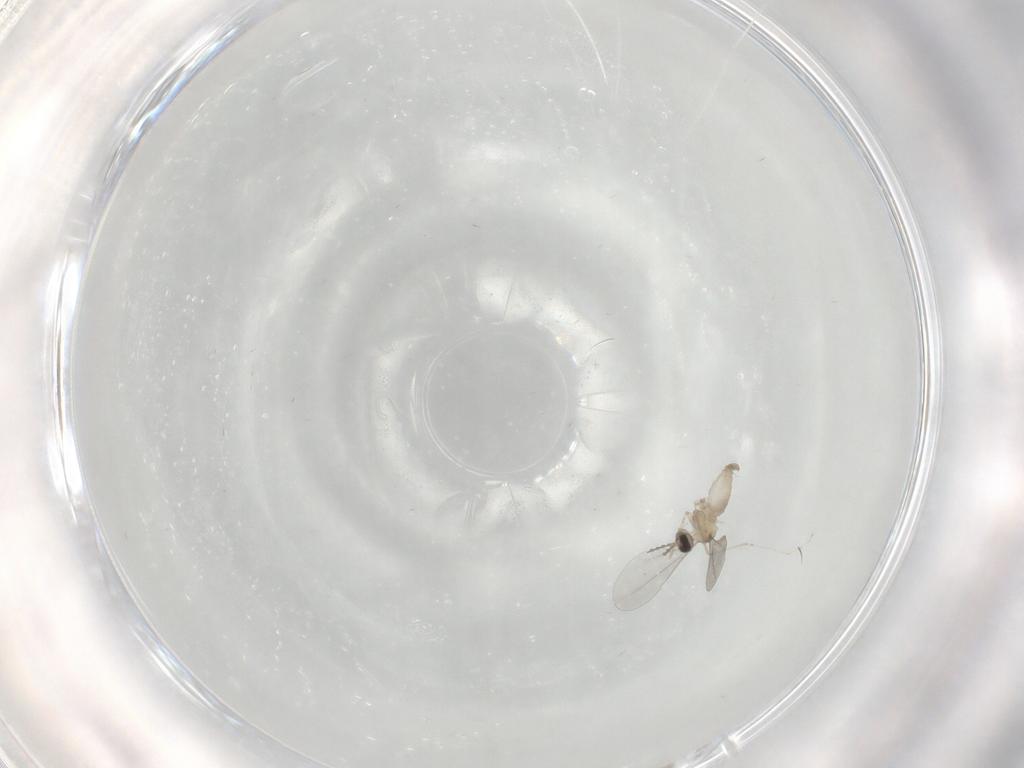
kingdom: Animalia
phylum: Arthropoda
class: Insecta
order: Diptera
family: Cecidomyiidae
